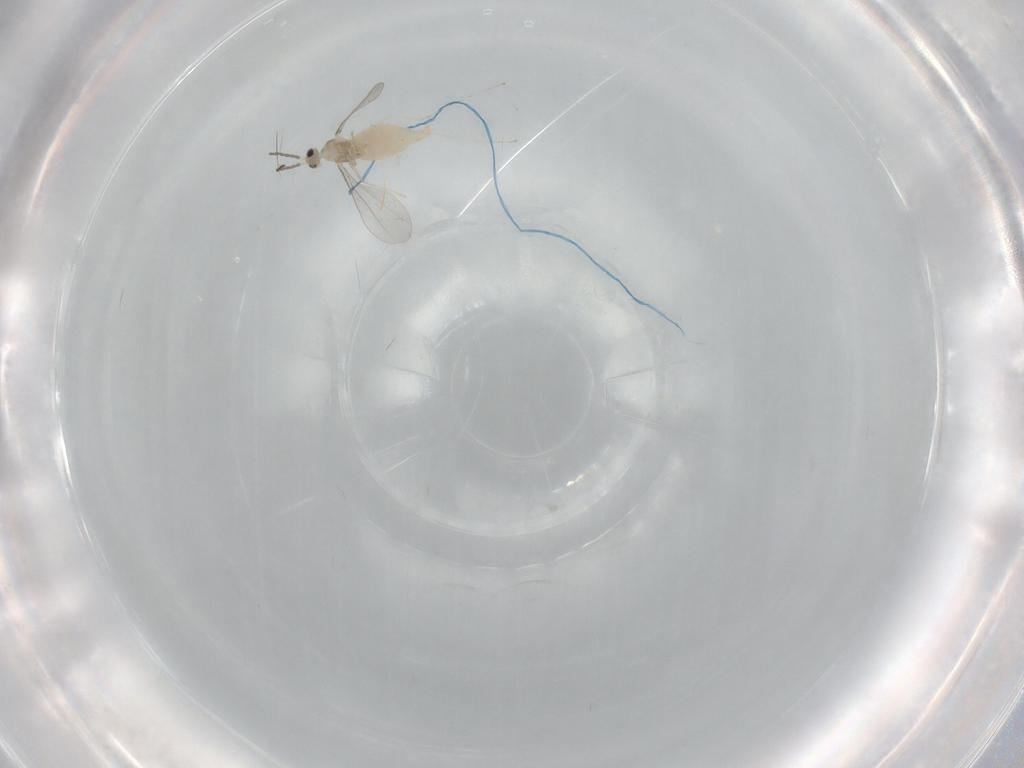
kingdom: Animalia
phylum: Arthropoda
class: Insecta
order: Diptera
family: Cecidomyiidae
